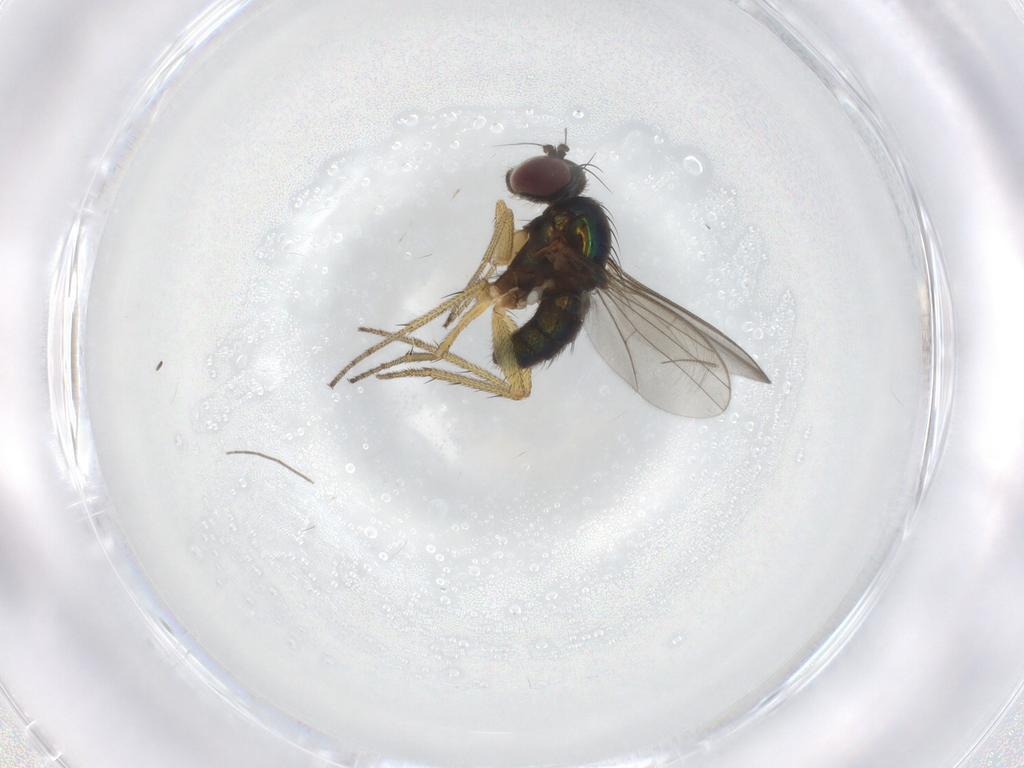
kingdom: Animalia
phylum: Arthropoda
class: Insecta
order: Diptera
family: Chironomidae
